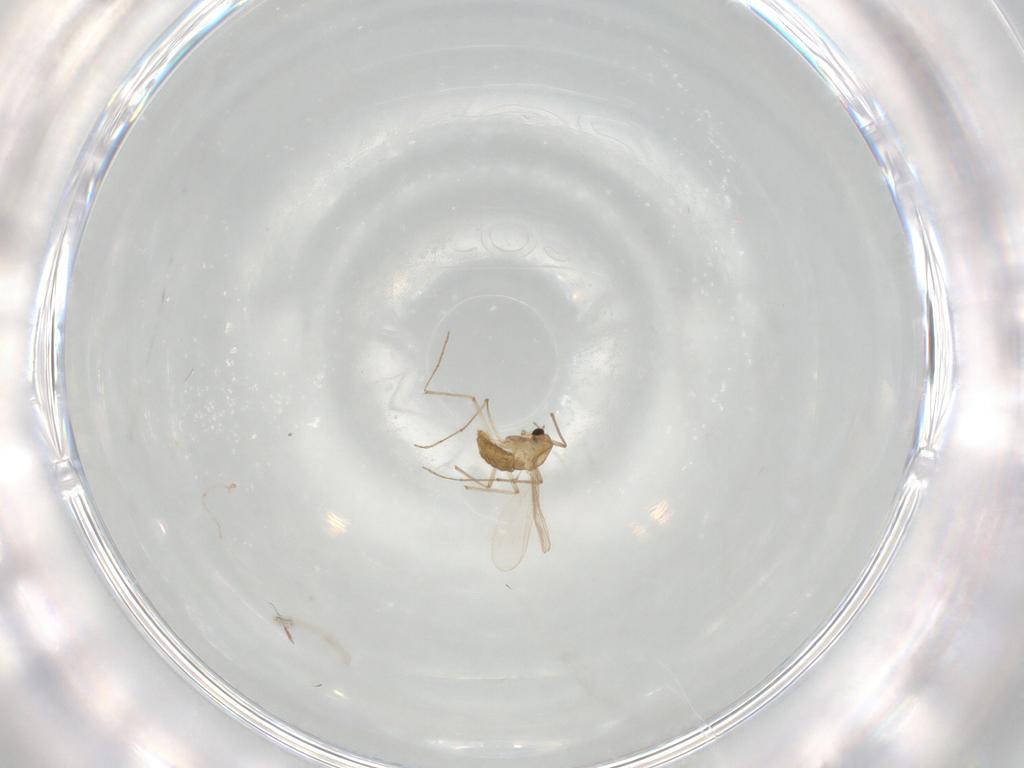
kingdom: Animalia
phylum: Arthropoda
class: Insecta
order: Diptera
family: Chironomidae
